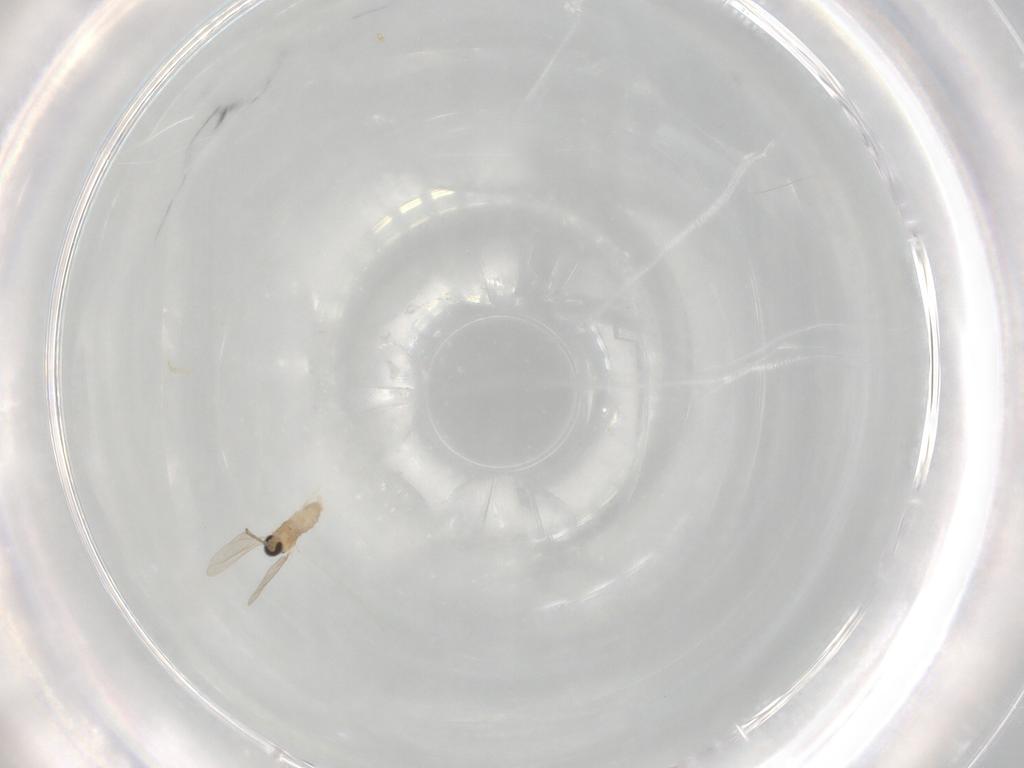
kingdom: Animalia
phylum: Arthropoda
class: Insecta
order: Diptera
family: Cecidomyiidae
